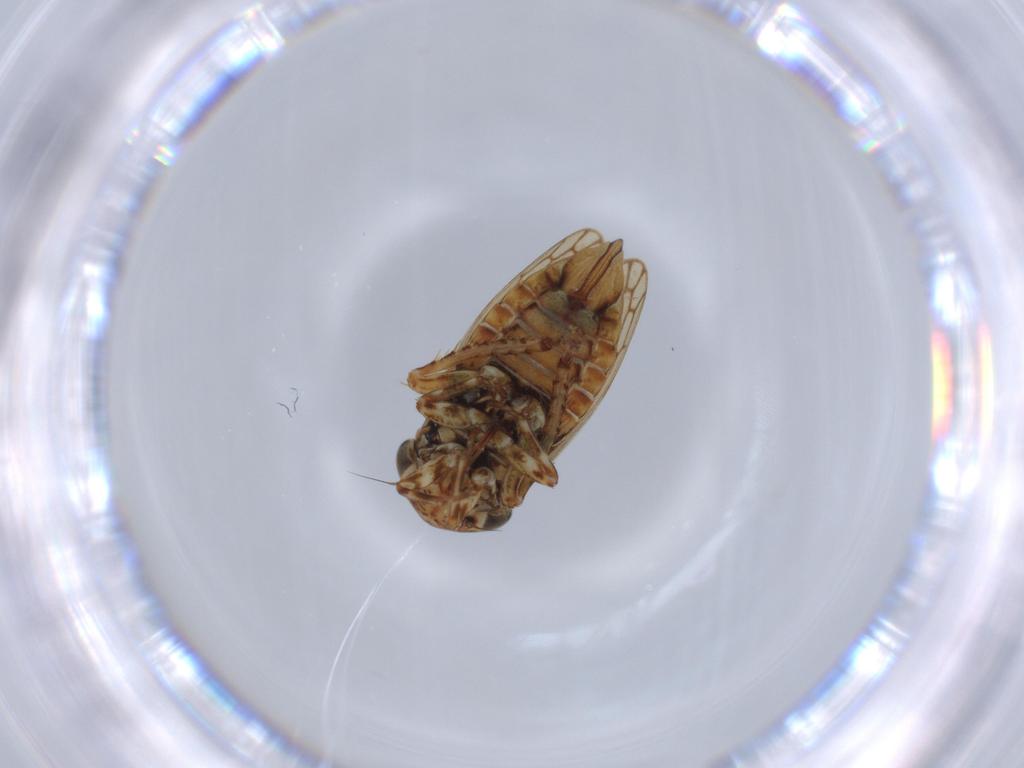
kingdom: Animalia
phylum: Arthropoda
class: Insecta
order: Hemiptera
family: Cicadellidae
